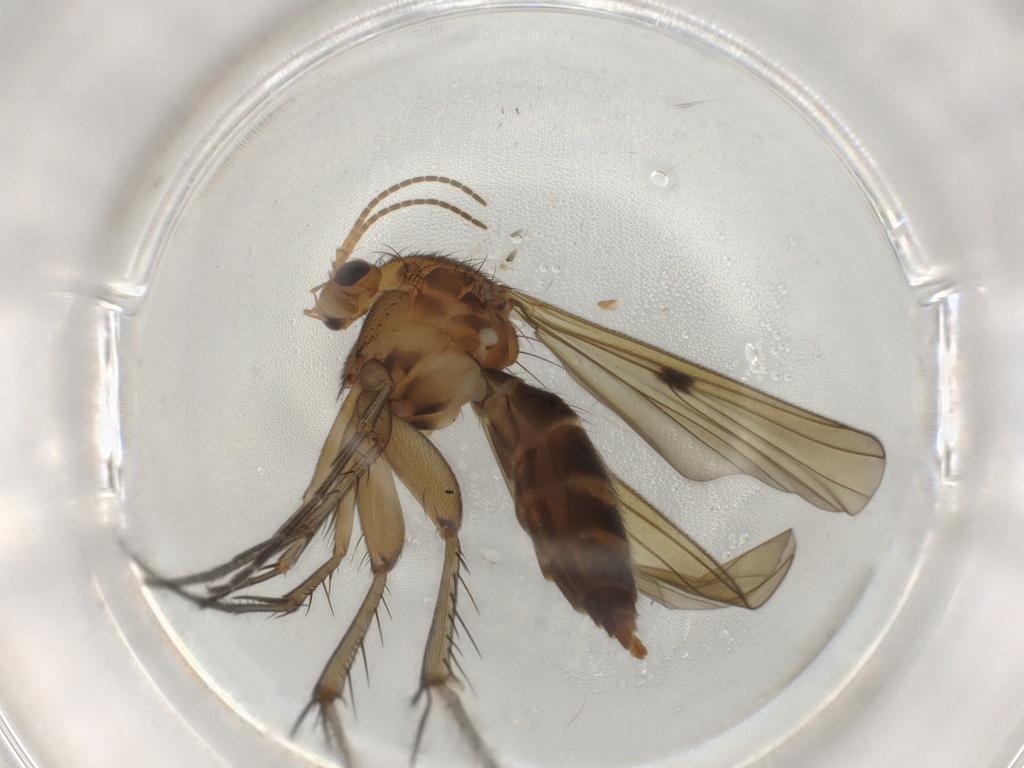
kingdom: Animalia
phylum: Arthropoda
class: Insecta
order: Diptera
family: Mycetophilidae
